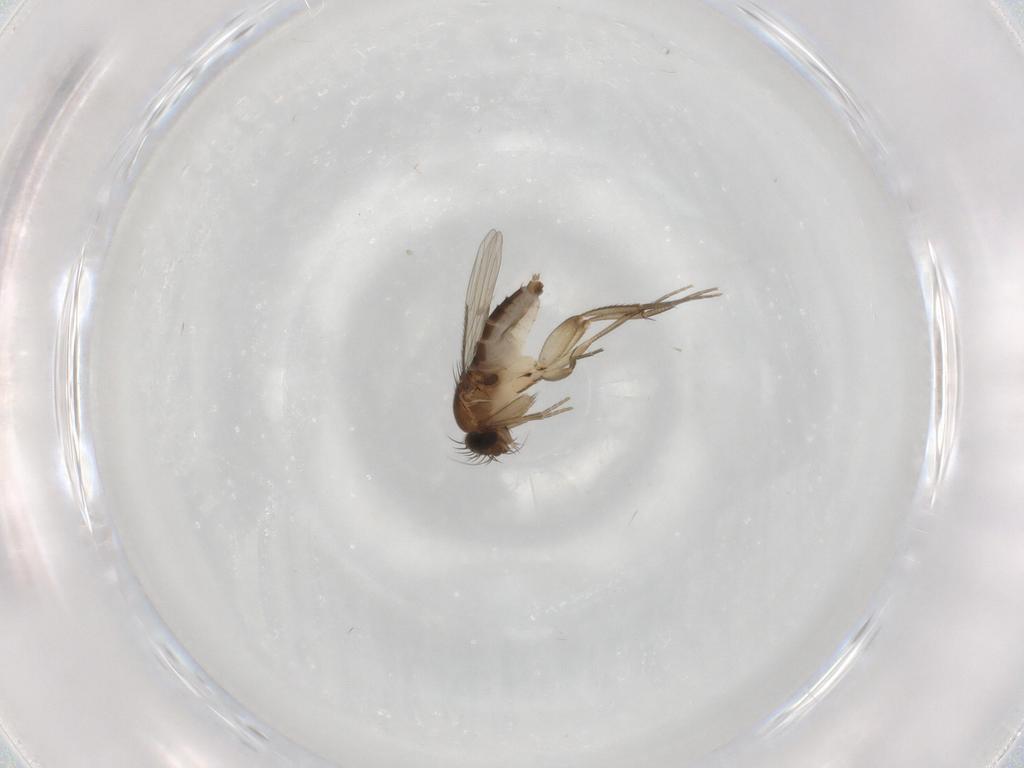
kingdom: Animalia
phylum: Arthropoda
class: Insecta
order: Diptera
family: Phoridae
